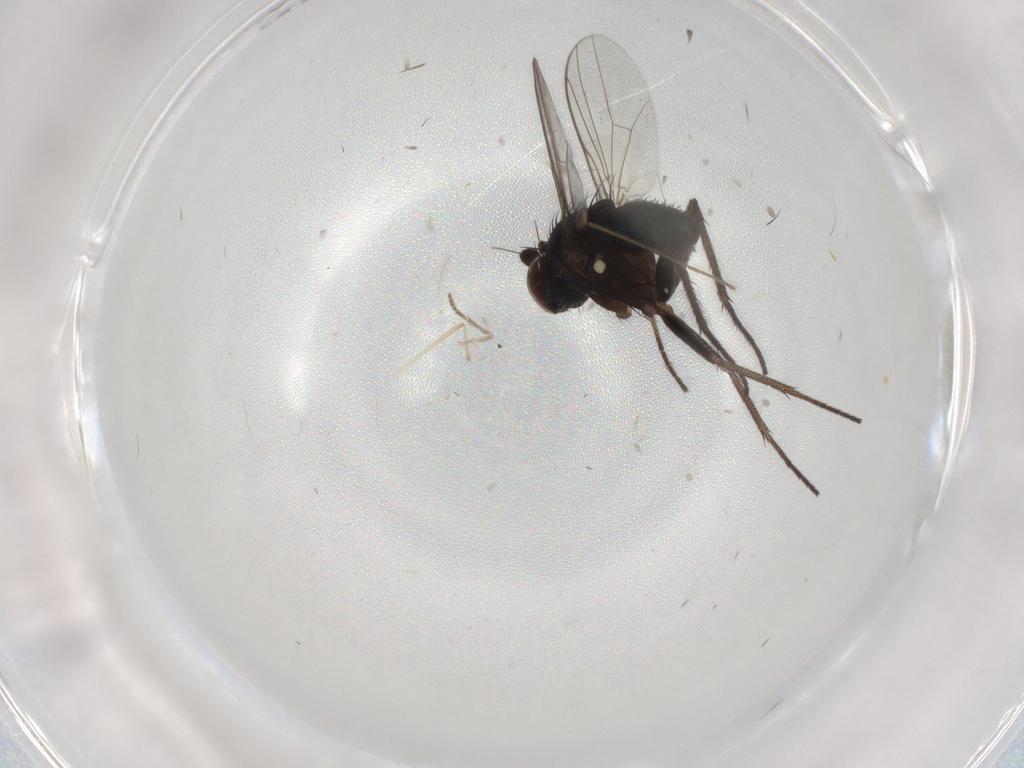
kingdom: Animalia
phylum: Arthropoda
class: Insecta
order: Diptera
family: Dolichopodidae
